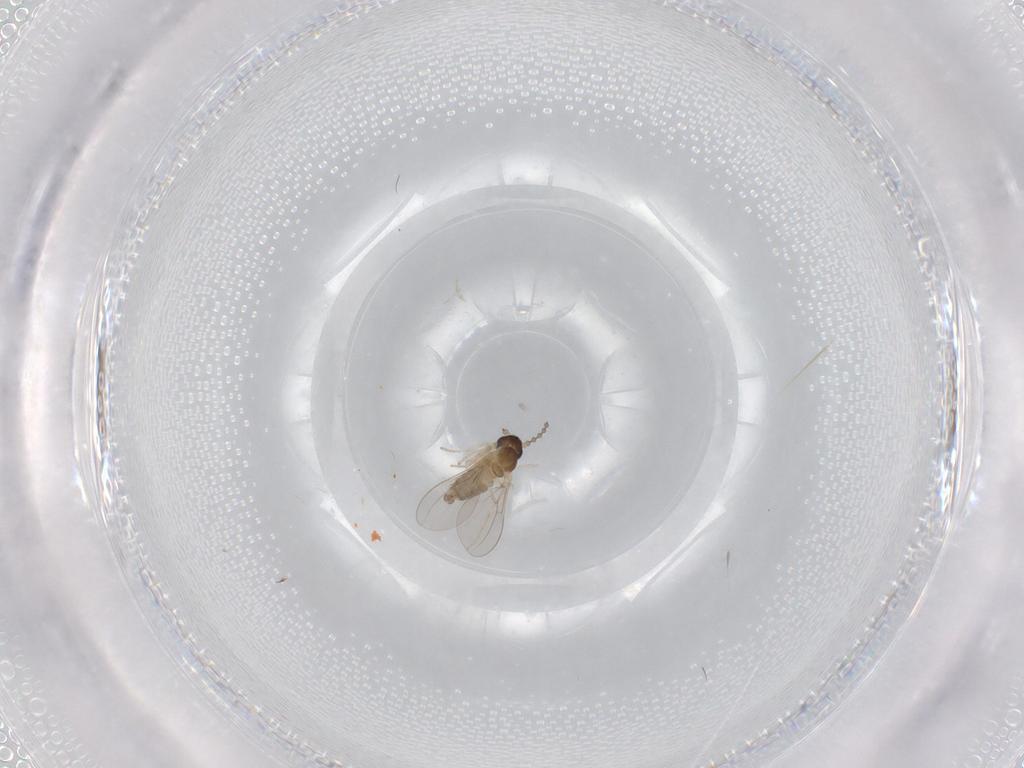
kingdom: Animalia
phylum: Arthropoda
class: Insecta
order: Diptera
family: Cecidomyiidae
